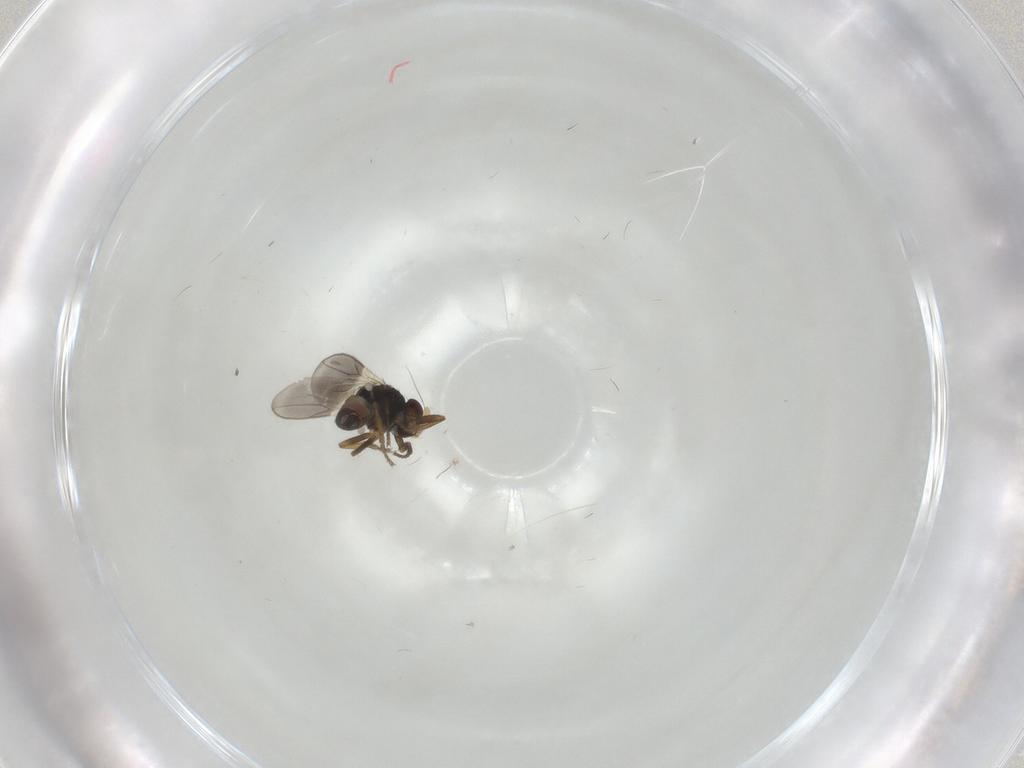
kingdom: Animalia
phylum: Arthropoda
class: Insecta
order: Diptera
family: Sphaeroceridae
